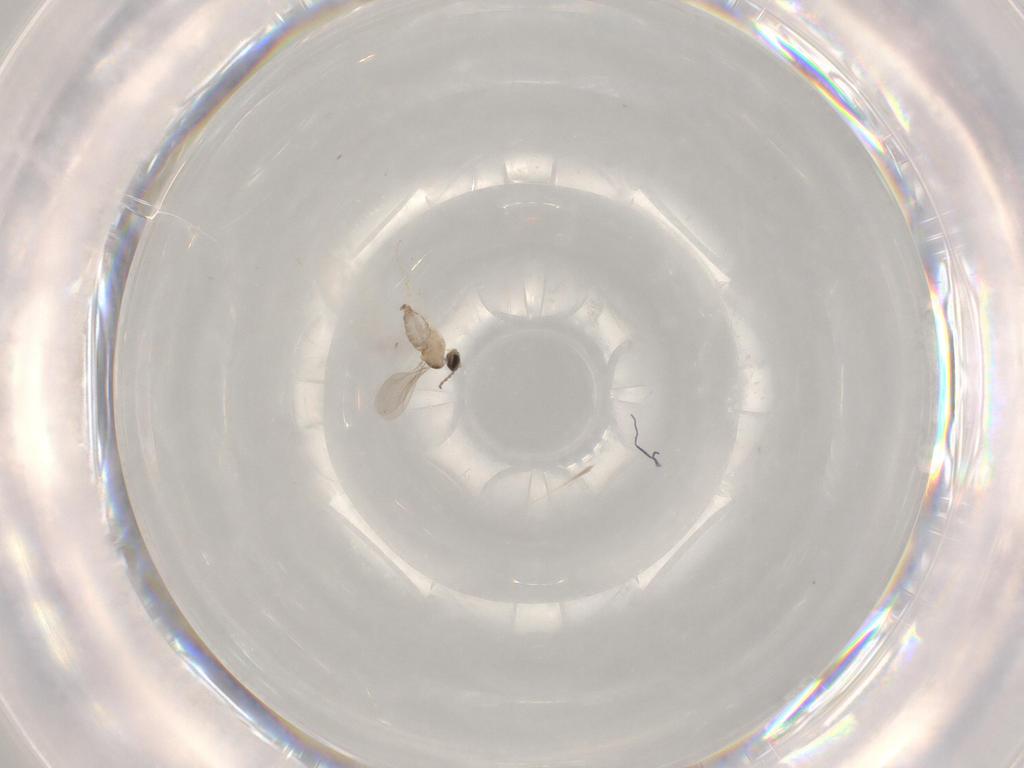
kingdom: Animalia
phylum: Arthropoda
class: Insecta
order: Diptera
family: Cecidomyiidae
